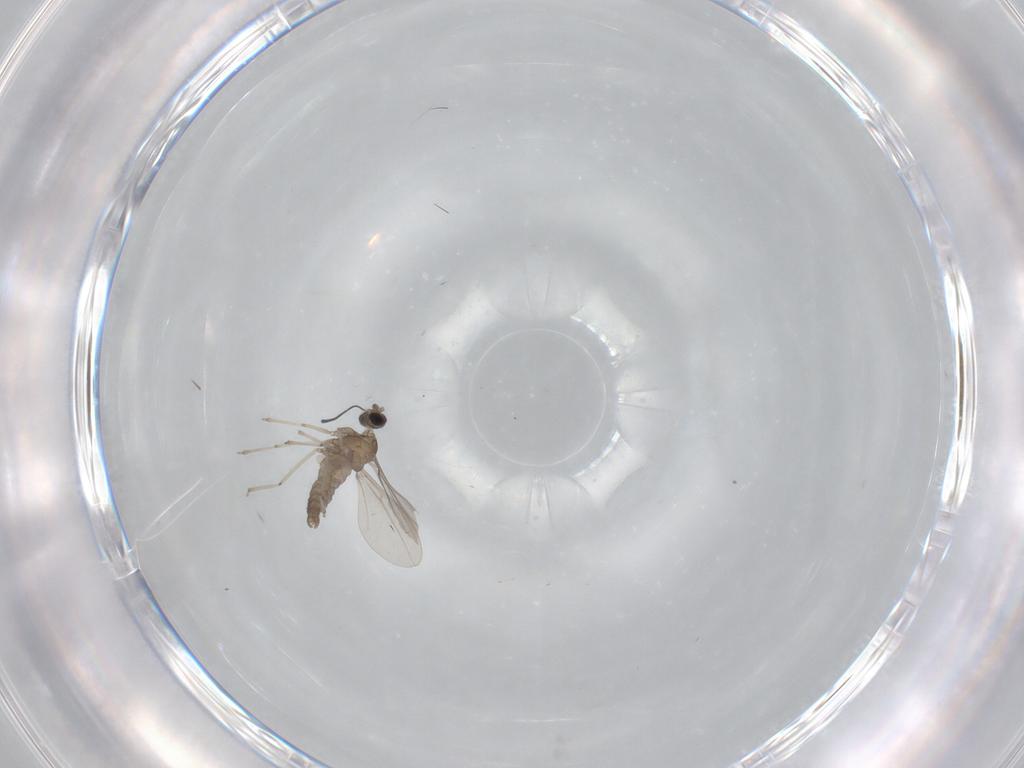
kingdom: Animalia
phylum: Arthropoda
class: Insecta
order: Diptera
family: Cecidomyiidae
